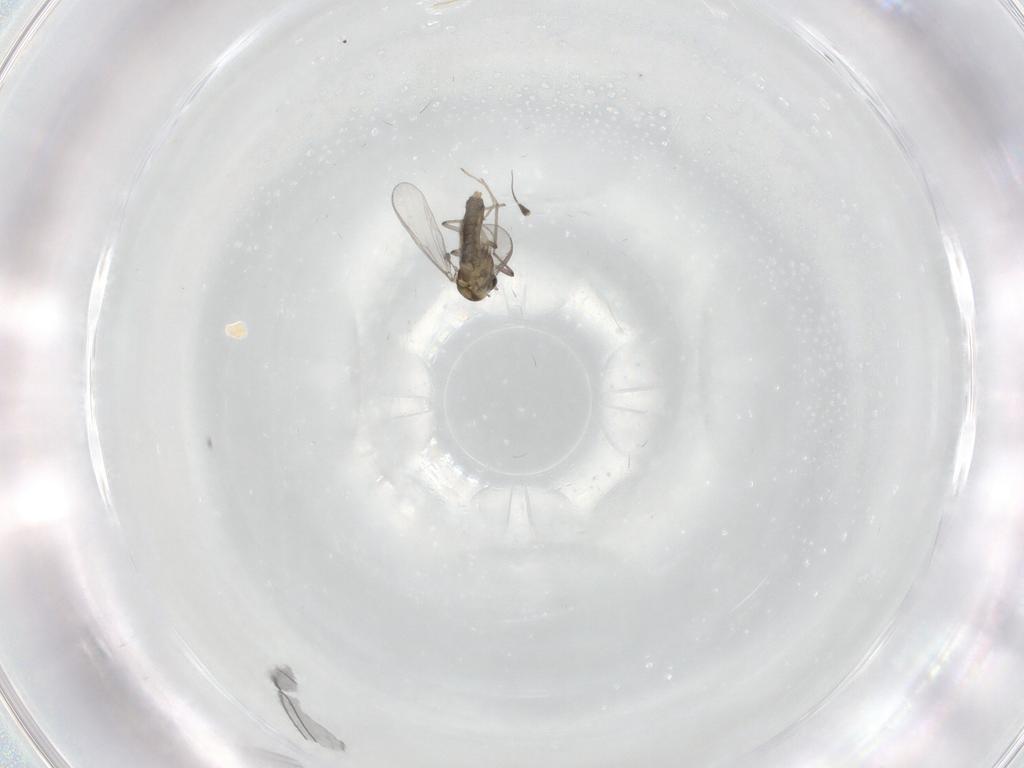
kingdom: Animalia
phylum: Arthropoda
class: Insecta
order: Diptera
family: Chironomidae
